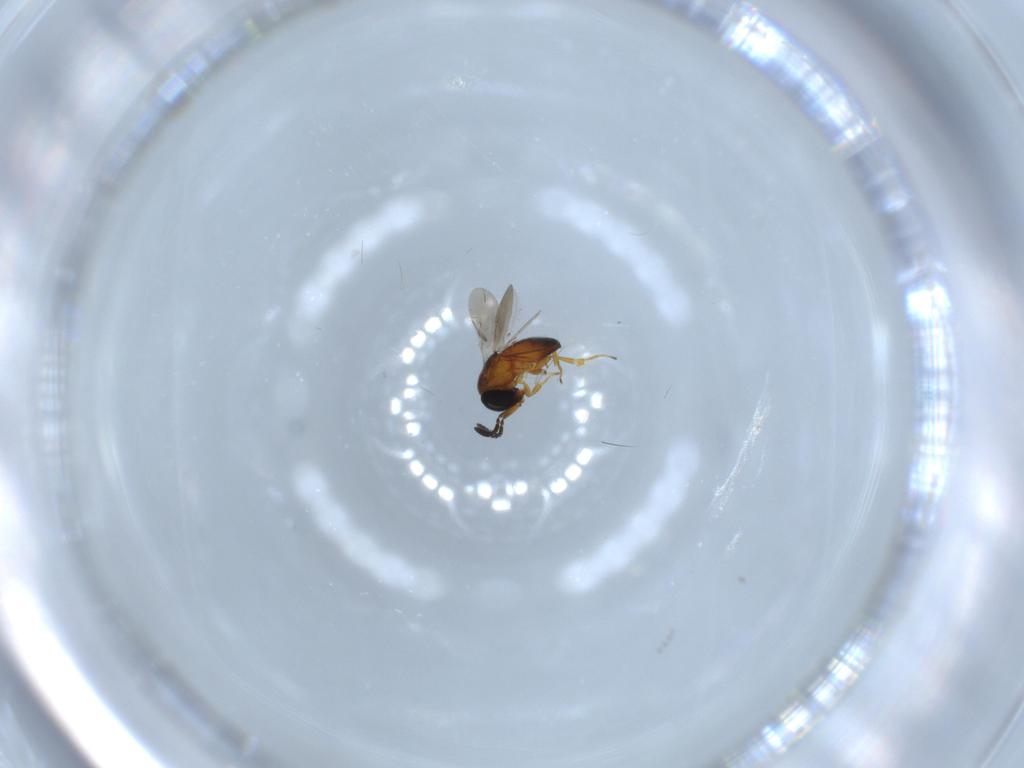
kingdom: Animalia
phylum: Arthropoda
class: Insecta
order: Hymenoptera
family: Scelionidae
